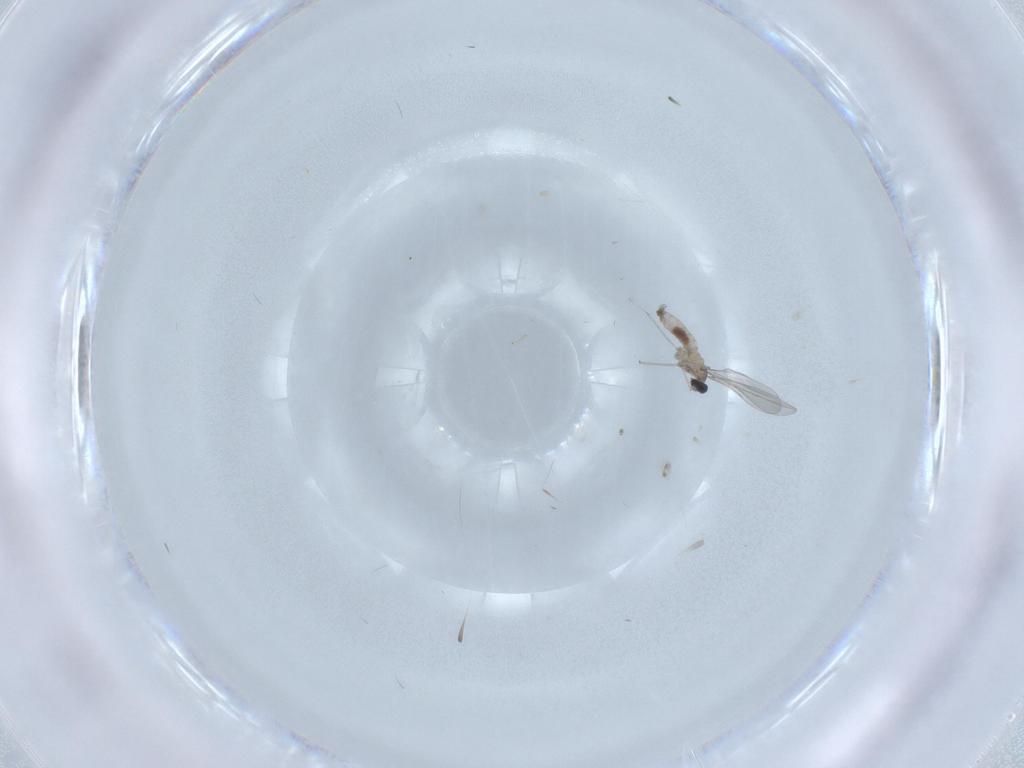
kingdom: Animalia
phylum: Arthropoda
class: Insecta
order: Diptera
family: Cecidomyiidae
